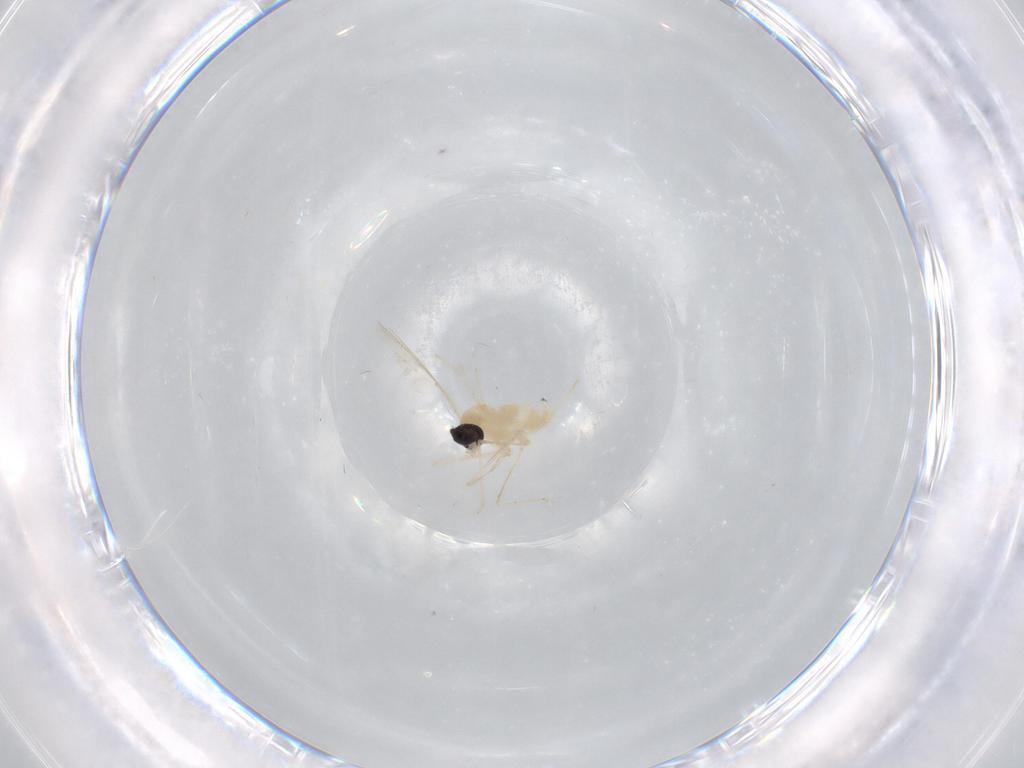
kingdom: Animalia
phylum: Arthropoda
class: Insecta
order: Diptera
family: Cecidomyiidae
